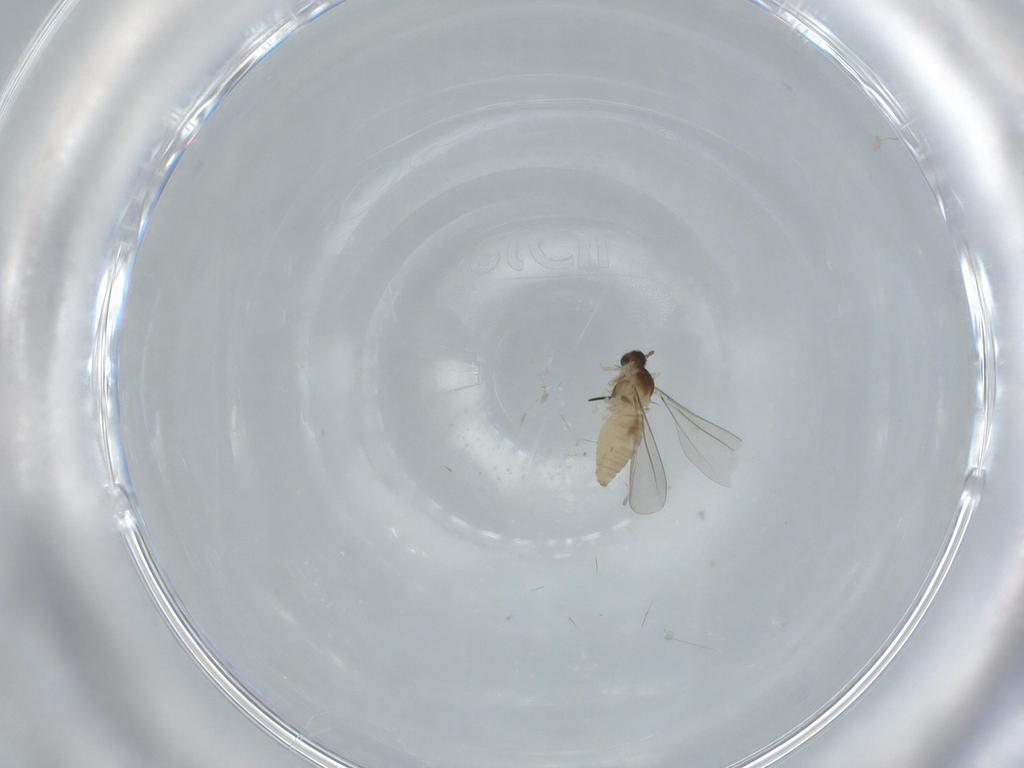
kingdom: Animalia
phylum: Arthropoda
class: Insecta
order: Diptera
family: Cecidomyiidae
